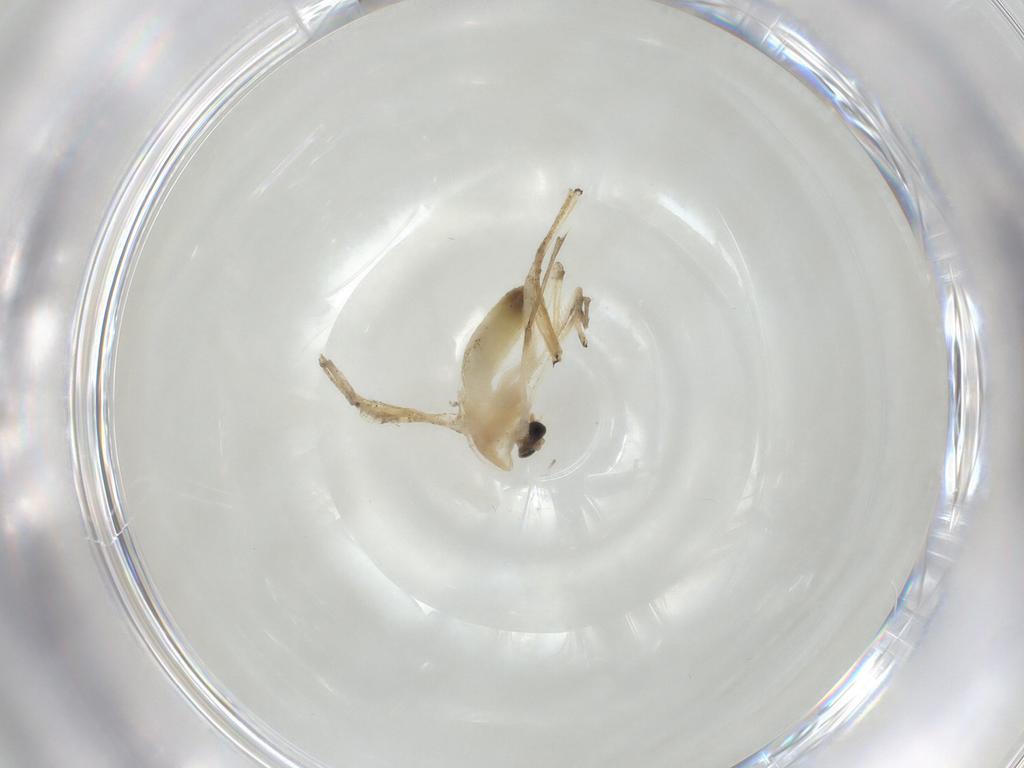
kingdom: Animalia
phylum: Arthropoda
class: Insecta
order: Diptera
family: Chironomidae
